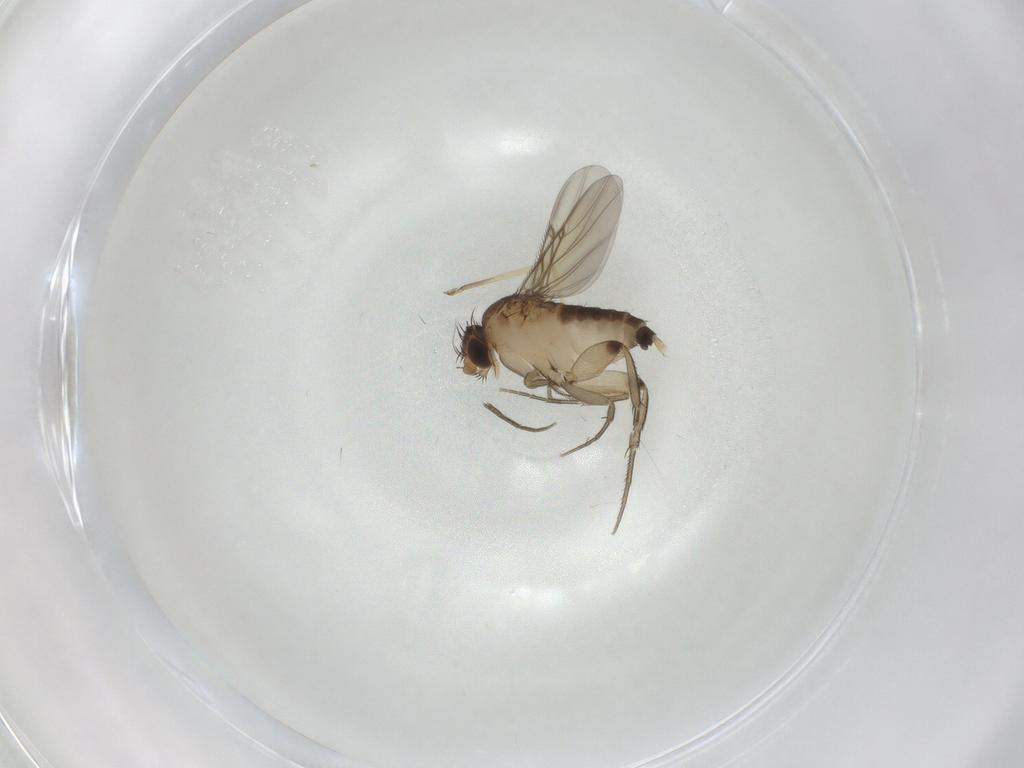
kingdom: Animalia
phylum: Arthropoda
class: Insecta
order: Diptera
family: Chironomidae
